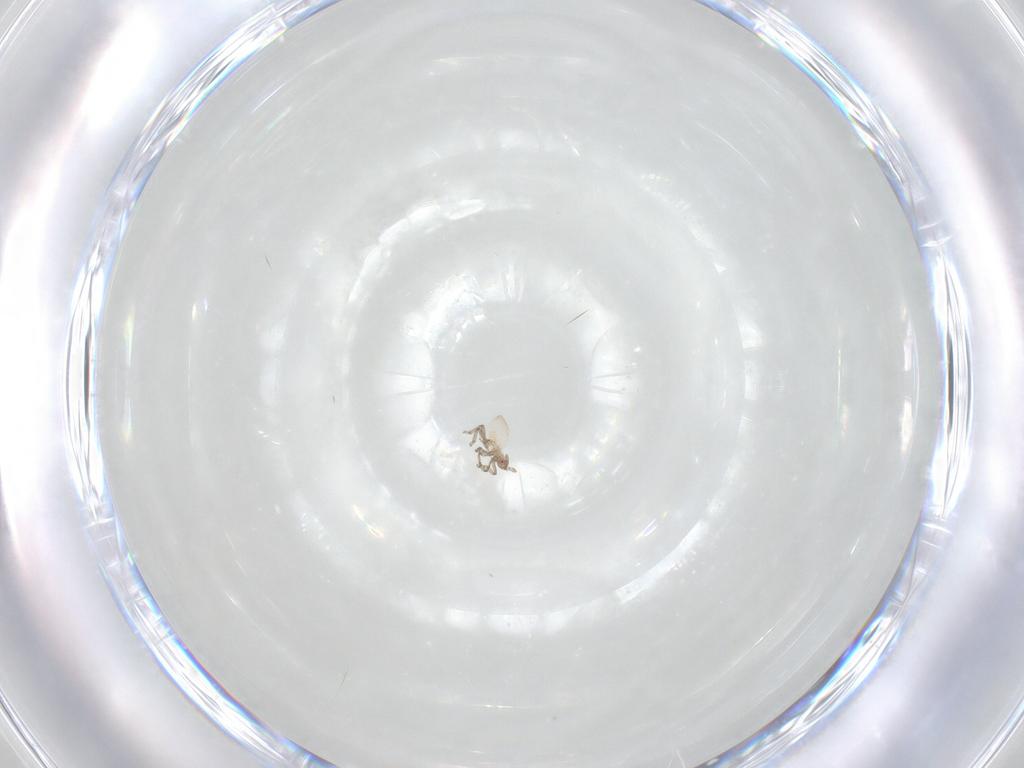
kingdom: Animalia
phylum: Arthropoda
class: Insecta
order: Hemiptera
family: Aphididae
